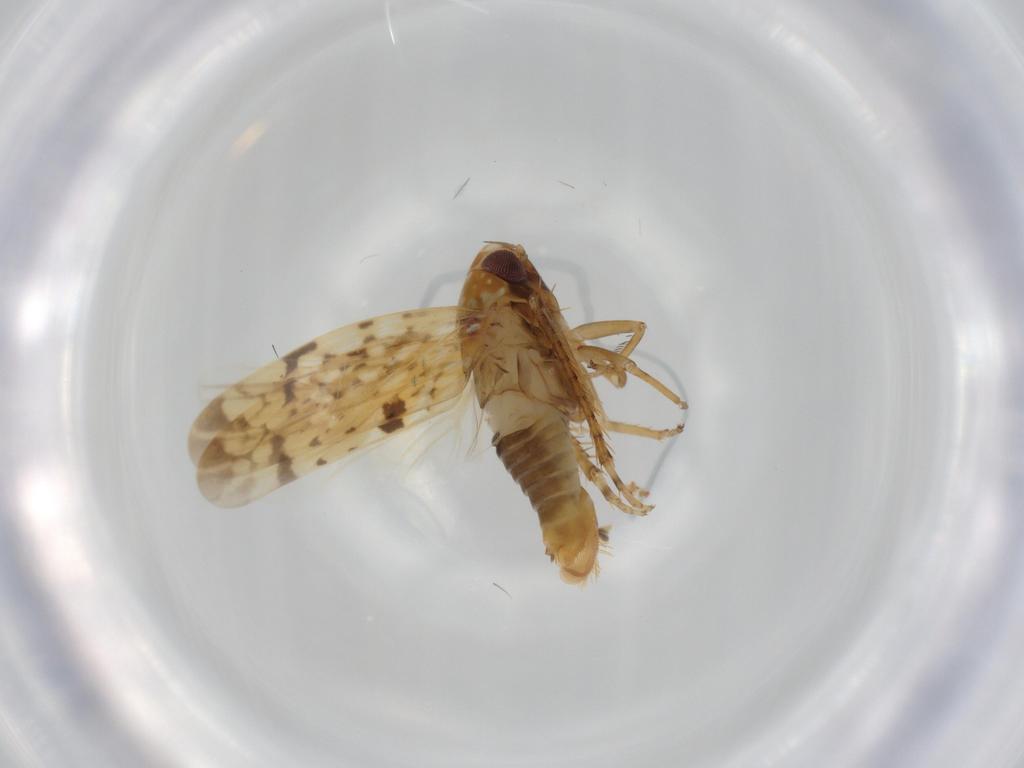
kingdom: Animalia
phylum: Arthropoda
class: Insecta
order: Hemiptera
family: Cicadellidae
